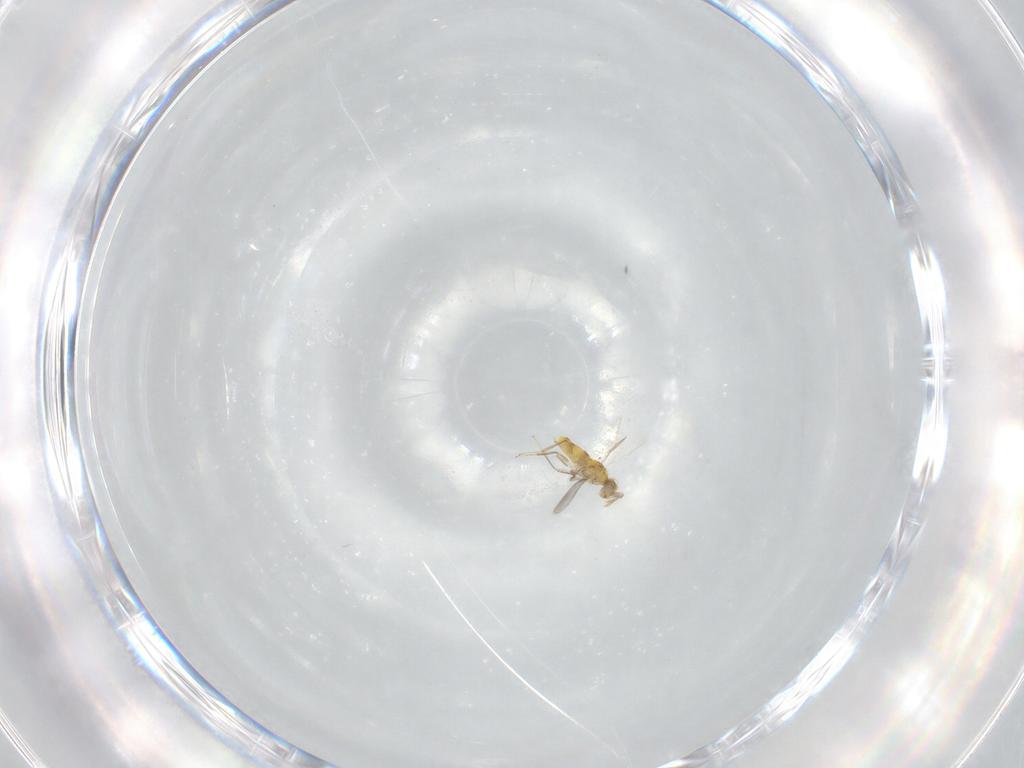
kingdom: Animalia
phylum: Arthropoda
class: Insecta
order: Hymenoptera
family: Aphelinidae
